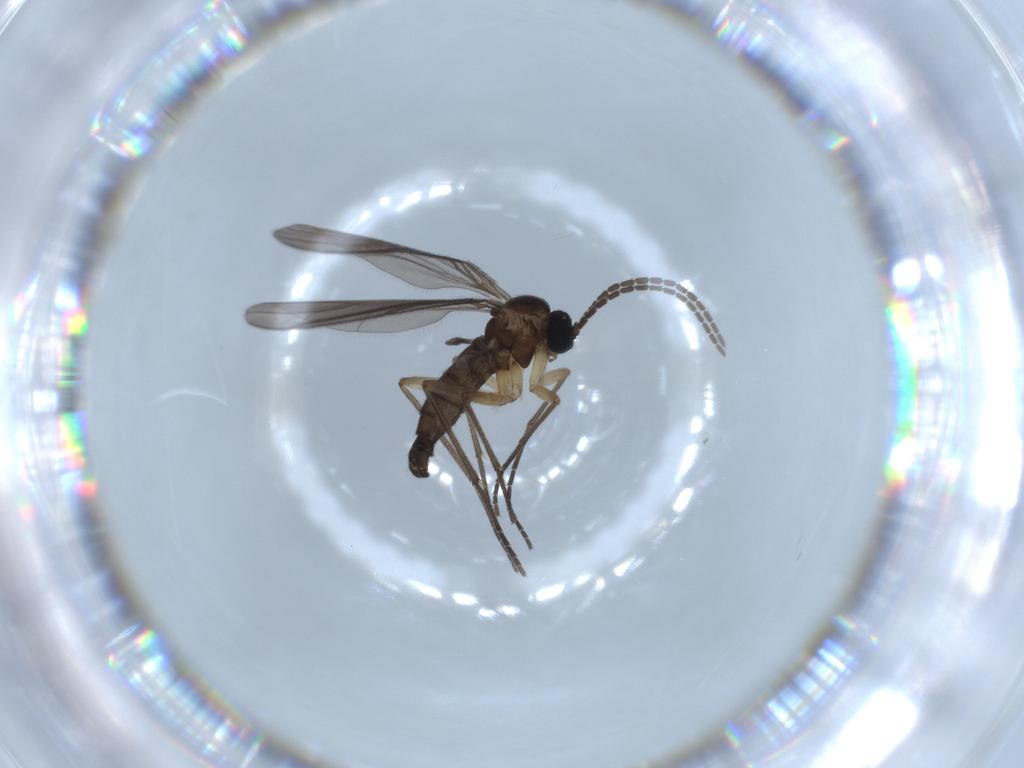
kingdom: Animalia
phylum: Arthropoda
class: Insecta
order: Diptera
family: Sciaridae
